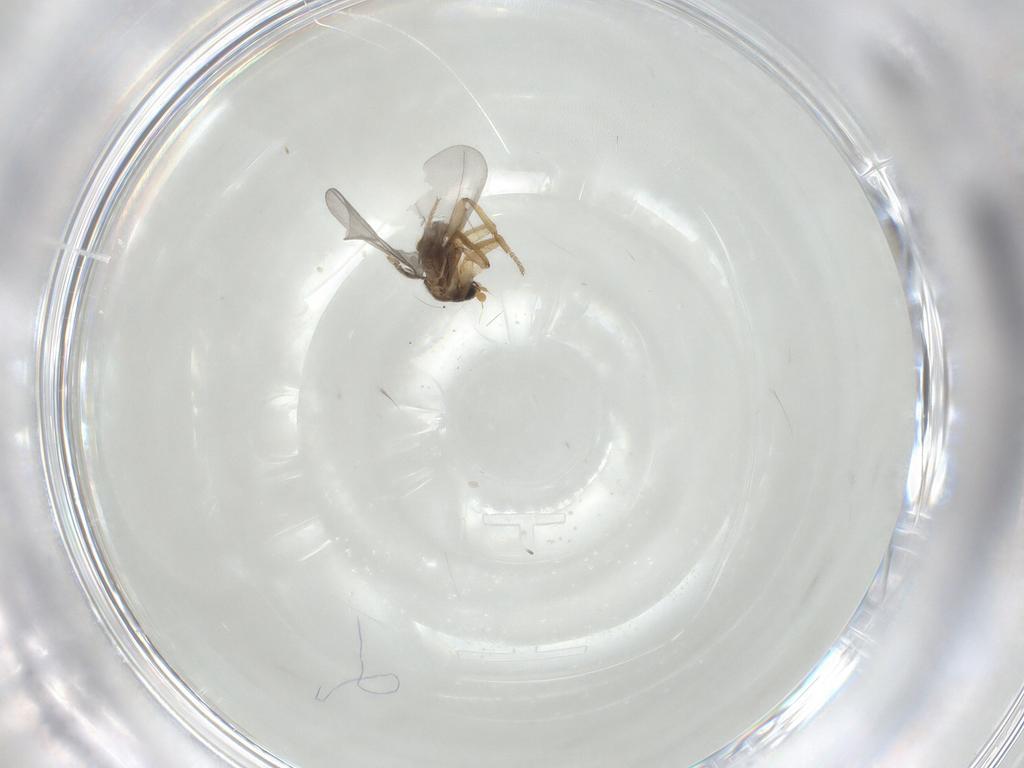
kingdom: Animalia
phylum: Arthropoda
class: Insecta
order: Diptera
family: Phoridae
